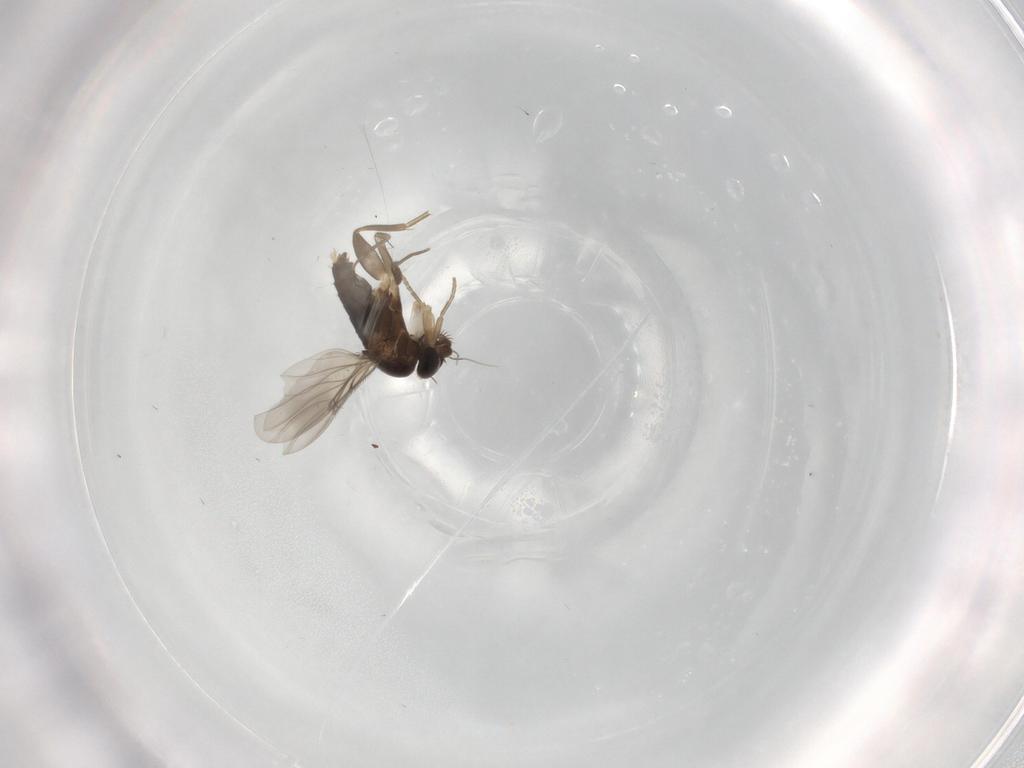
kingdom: Animalia
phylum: Arthropoda
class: Insecta
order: Diptera
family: Phoridae
